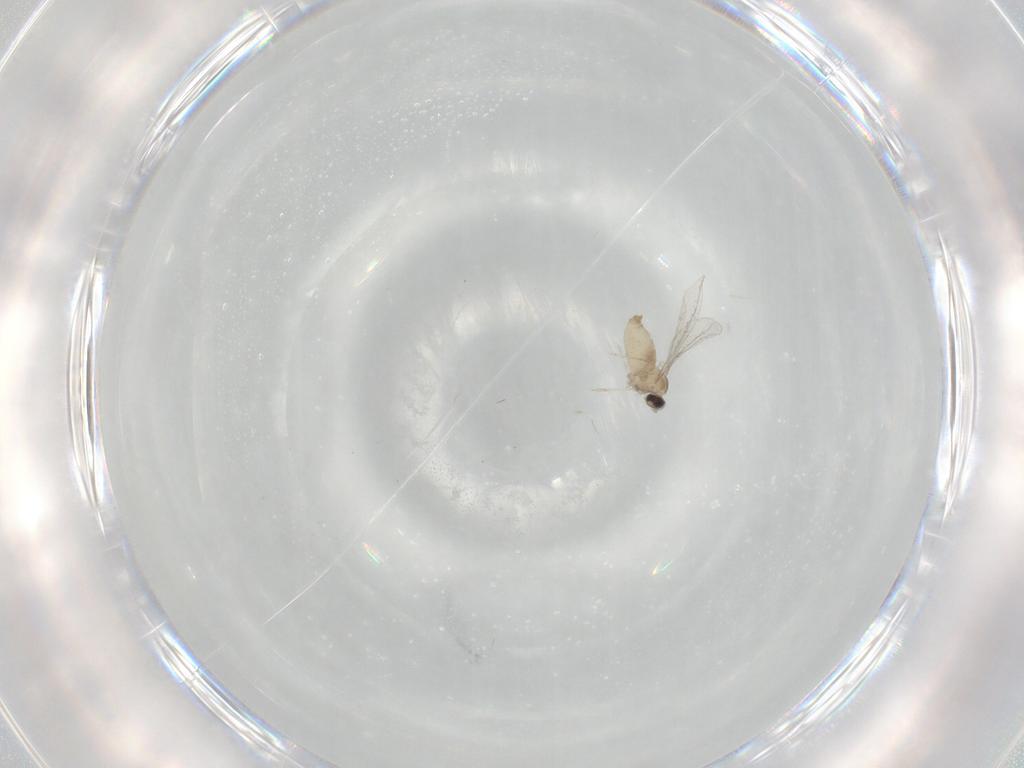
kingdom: Animalia
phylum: Arthropoda
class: Insecta
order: Diptera
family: Cecidomyiidae
